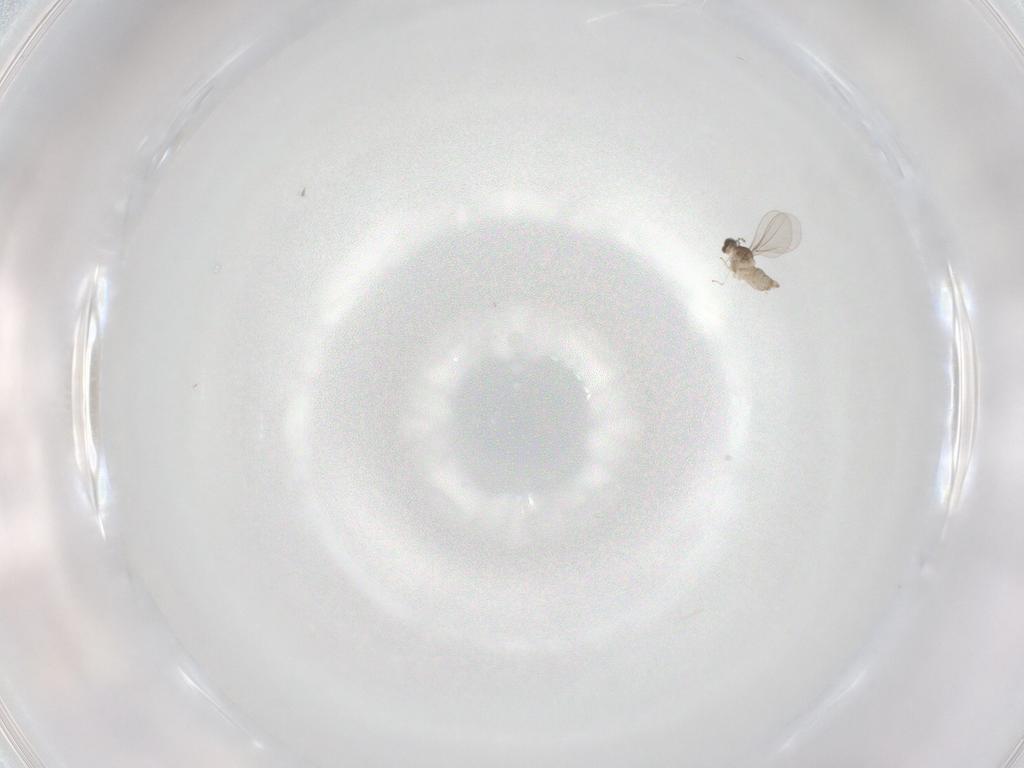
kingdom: Animalia
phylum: Arthropoda
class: Insecta
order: Diptera
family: Cecidomyiidae
